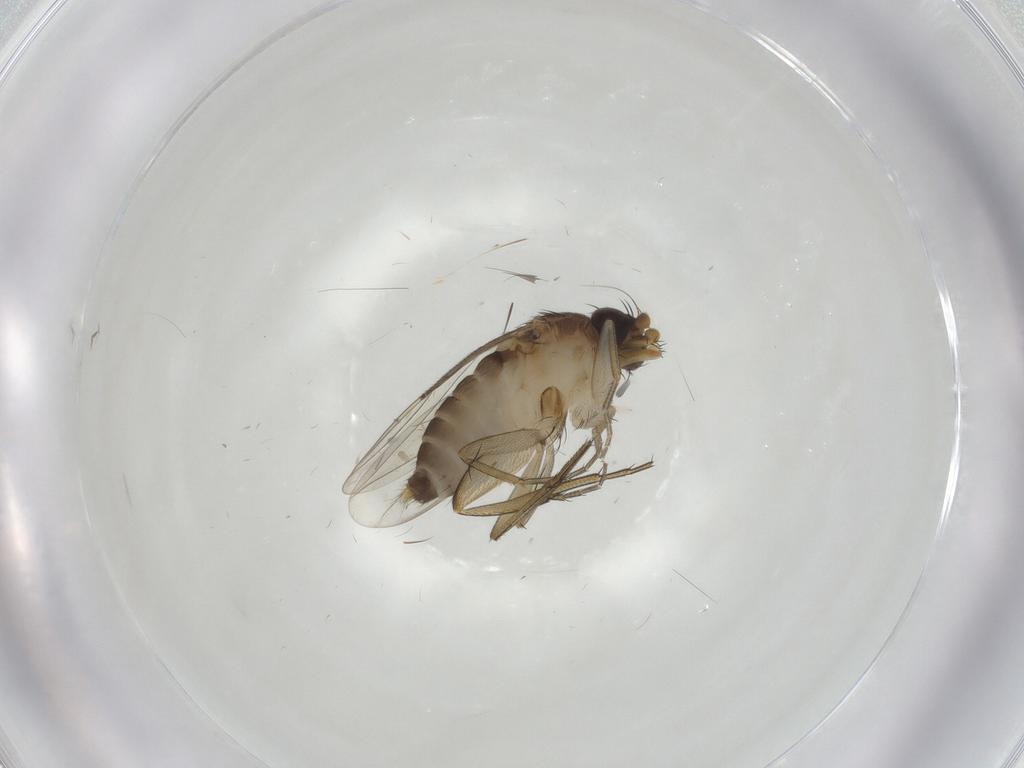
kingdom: Animalia
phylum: Arthropoda
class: Insecta
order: Diptera
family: Phoridae
